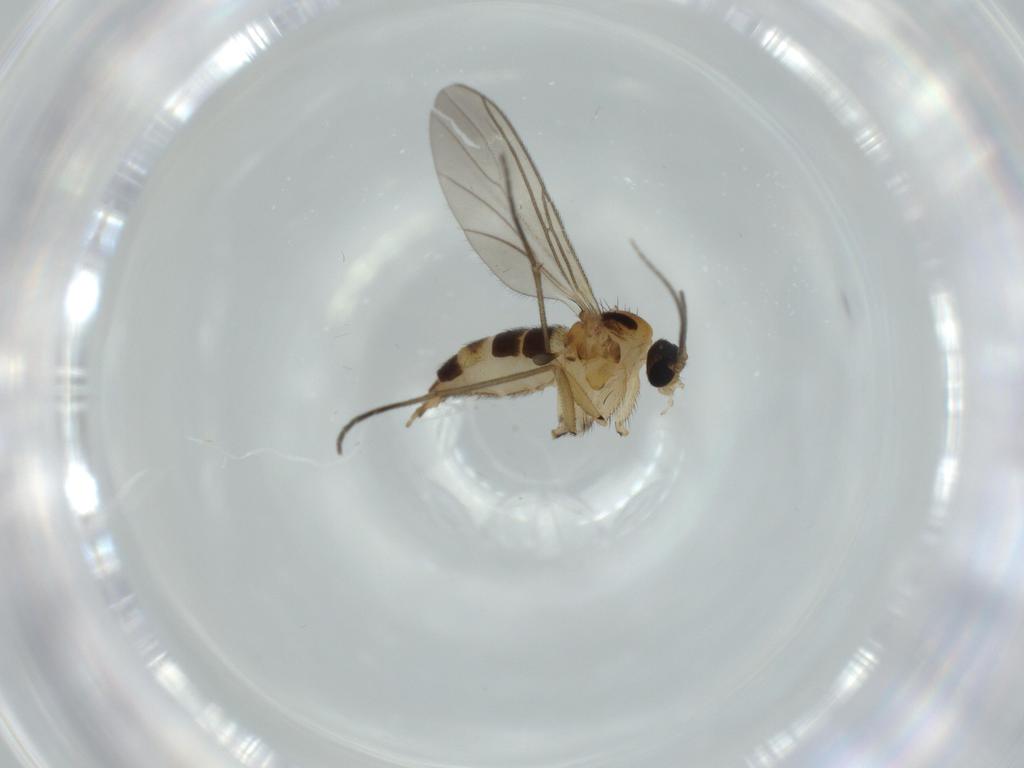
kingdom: Animalia
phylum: Arthropoda
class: Insecta
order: Diptera
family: Sciaridae
